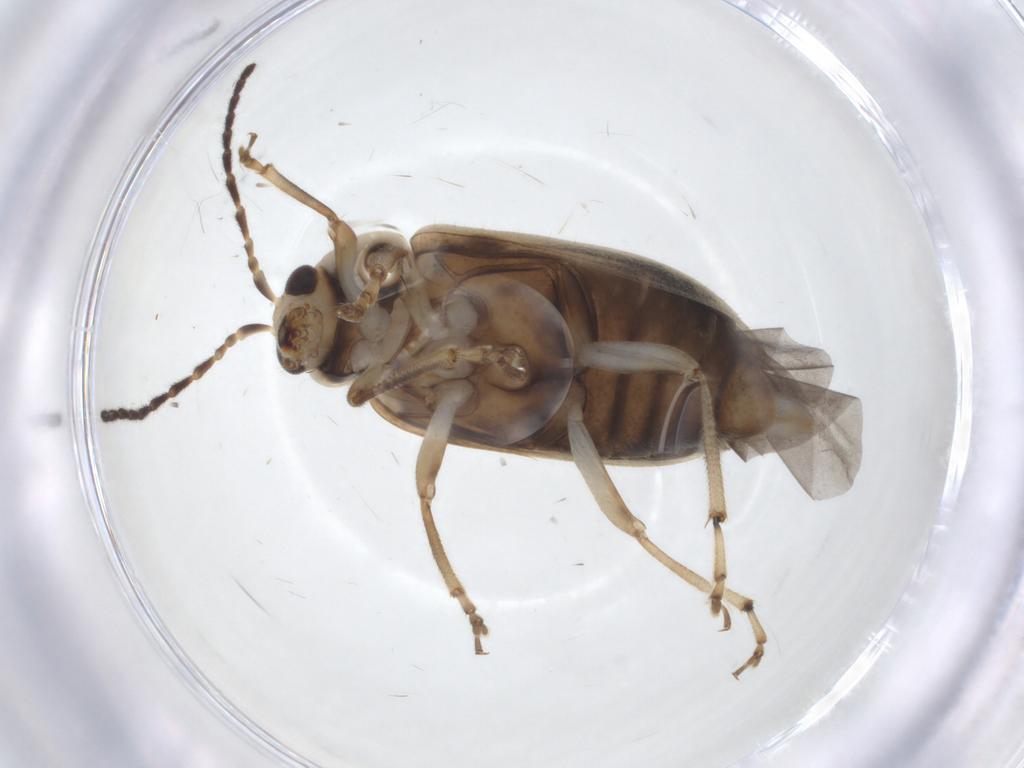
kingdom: Animalia
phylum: Arthropoda
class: Insecta
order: Coleoptera
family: Chrysomelidae
